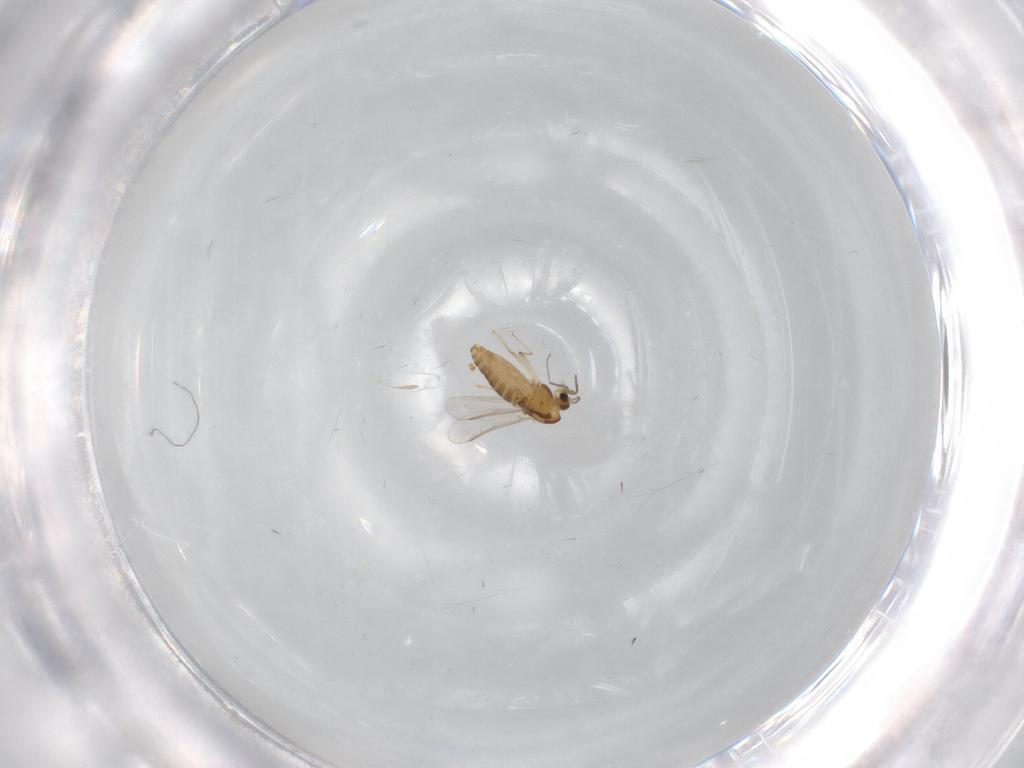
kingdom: Animalia
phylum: Arthropoda
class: Insecta
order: Diptera
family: Chironomidae
